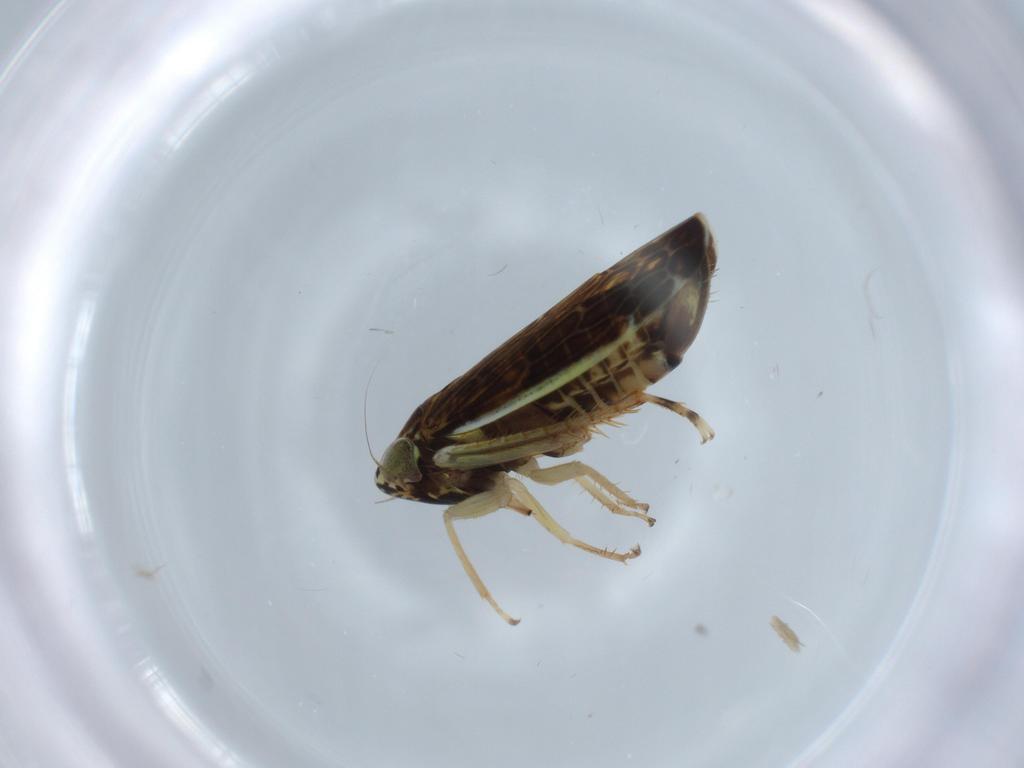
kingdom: Animalia
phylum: Arthropoda
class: Insecta
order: Hemiptera
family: Cicadellidae
